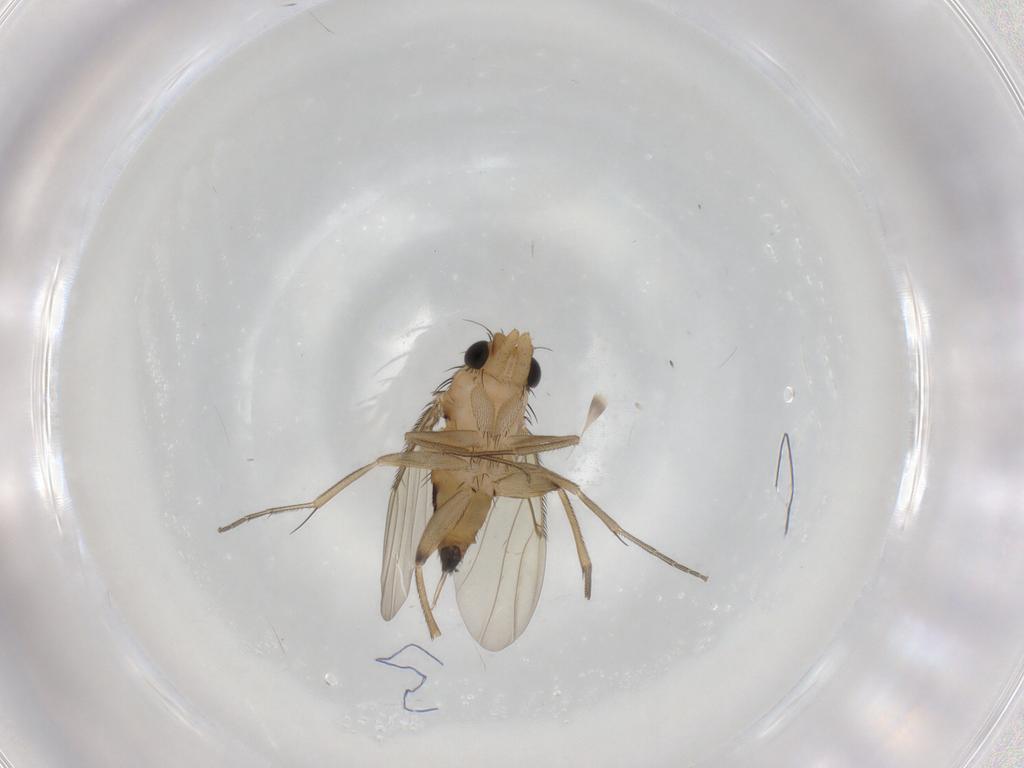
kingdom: Animalia
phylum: Arthropoda
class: Insecta
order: Diptera
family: Phoridae
